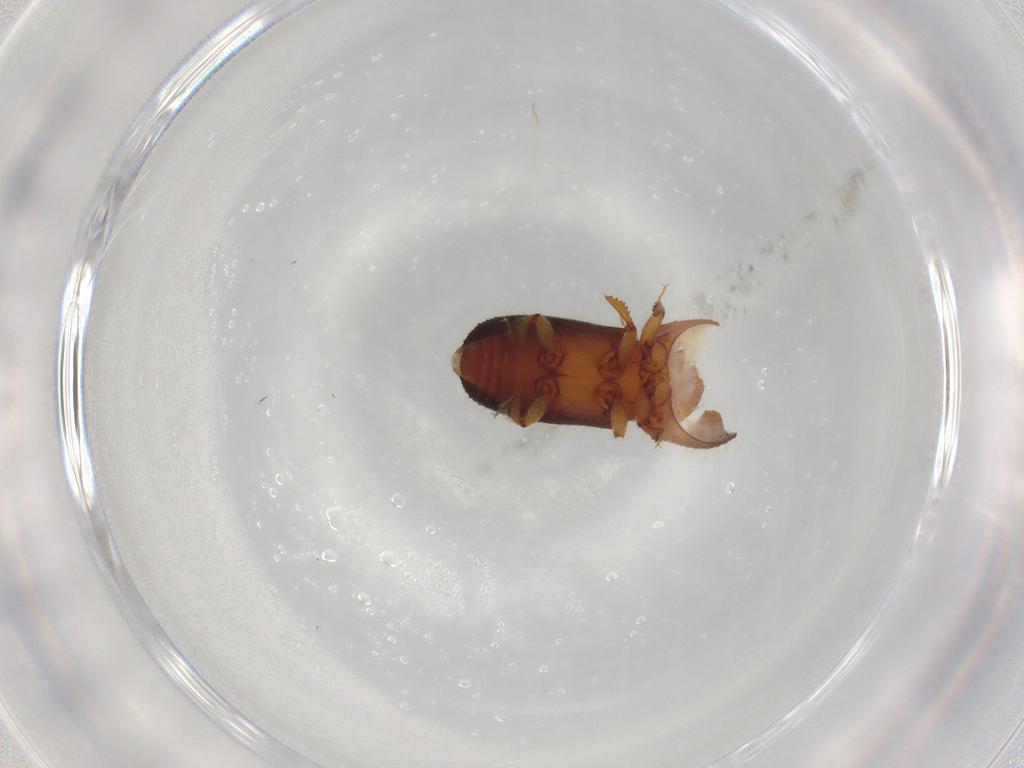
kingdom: Animalia
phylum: Arthropoda
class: Insecta
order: Coleoptera
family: Curculionidae
